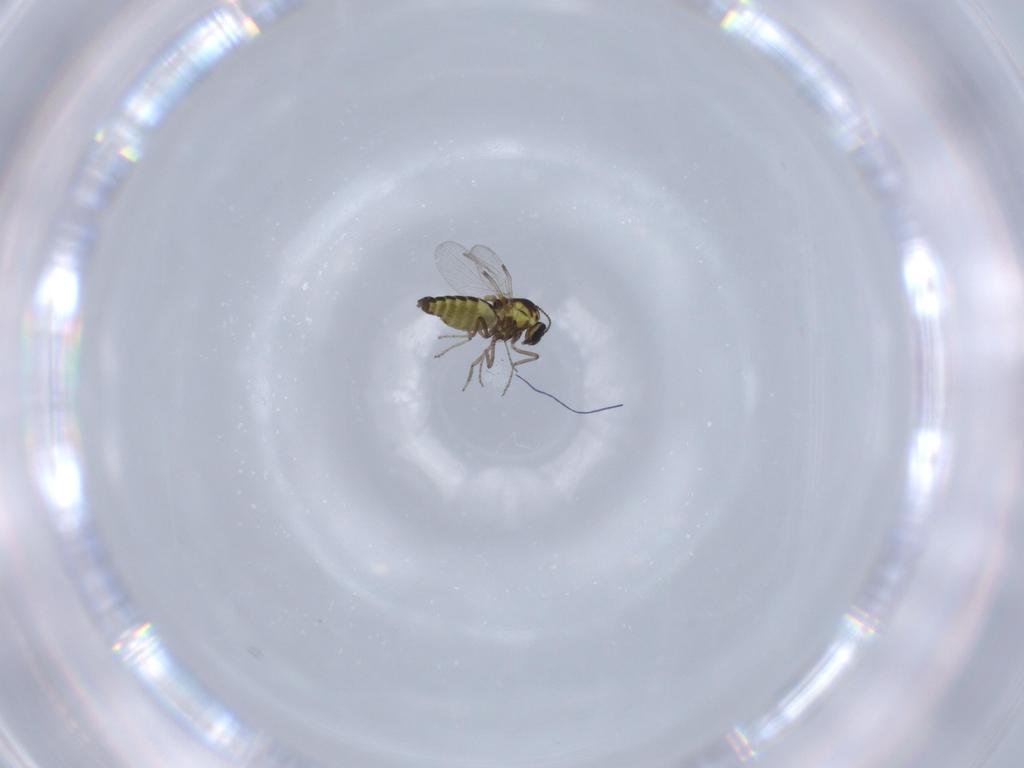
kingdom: Animalia
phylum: Arthropoda
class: Insecta
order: Diptera
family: Ceratopogonidae
